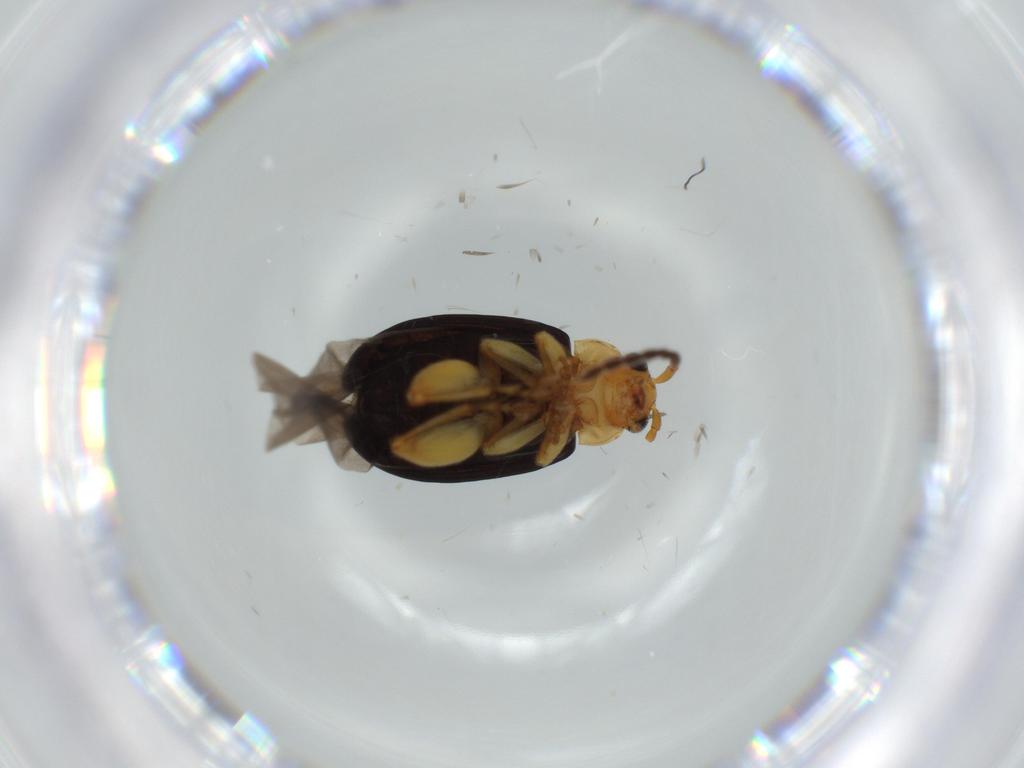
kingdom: Animalia
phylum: Arthropoda
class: Insecta
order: Coleoptera
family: Chrysomelidae
